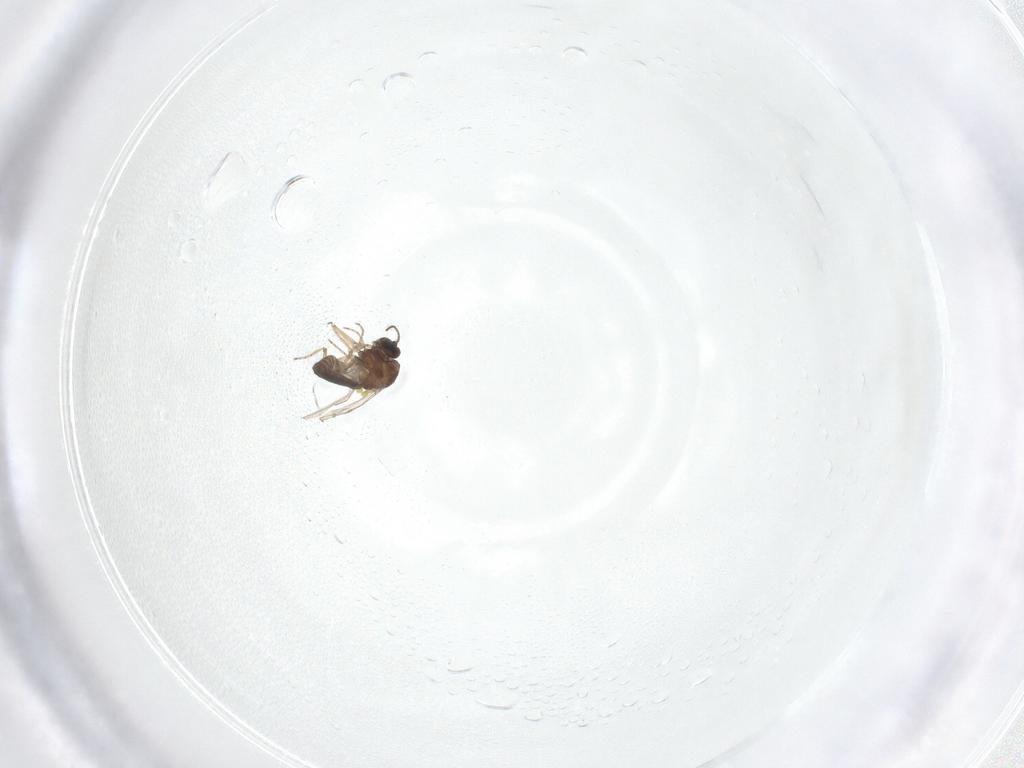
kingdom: Animalia
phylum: Arthropoda
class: Insecta
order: Diptera
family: Ceratopogonidae
